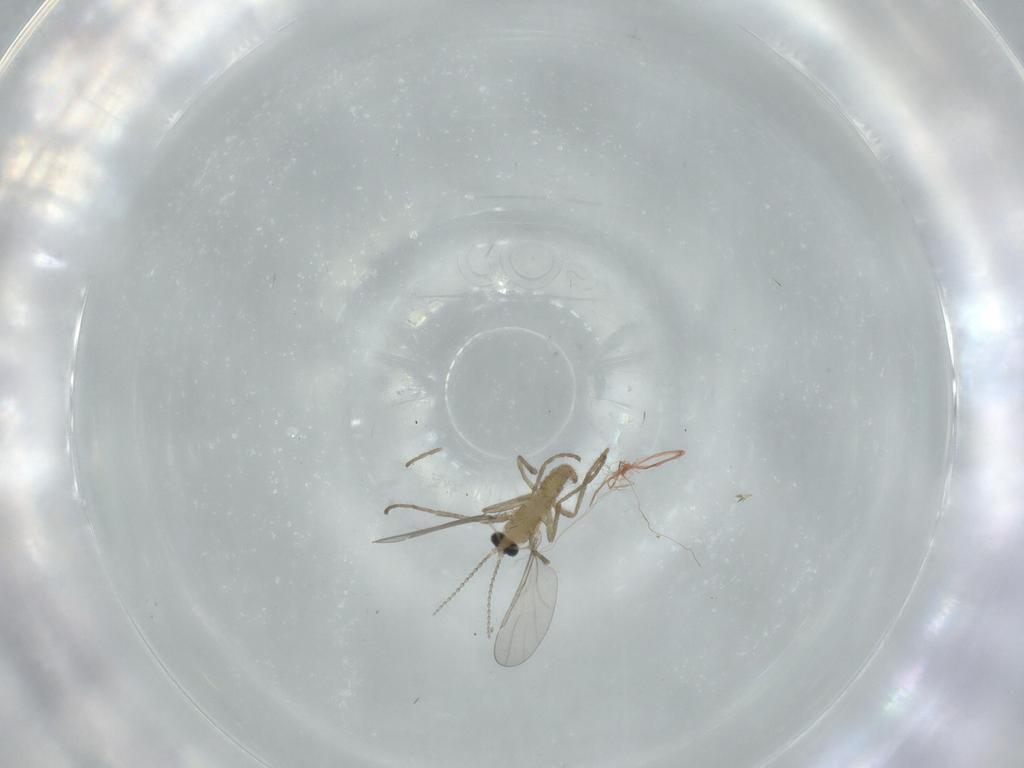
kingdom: Animalia
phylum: Arthropoda
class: Insecta
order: Diptera
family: Cecidomyiidae
